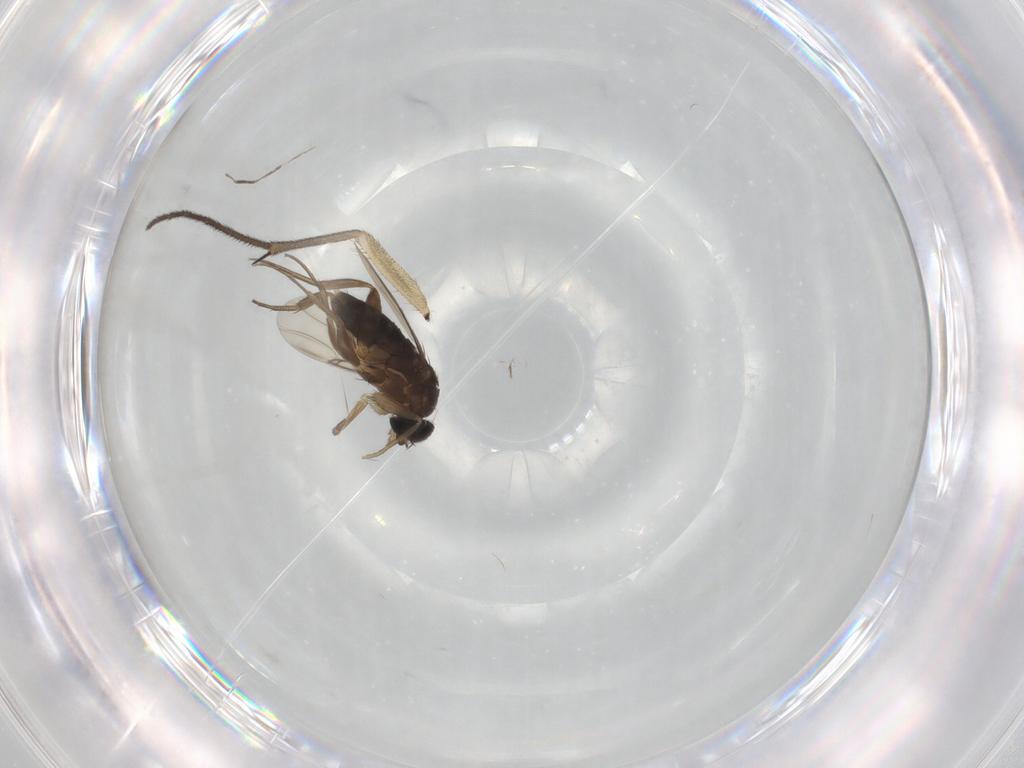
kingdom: Animalia
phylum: Arthropoda
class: Insecta
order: Diptera
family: Phoridae
